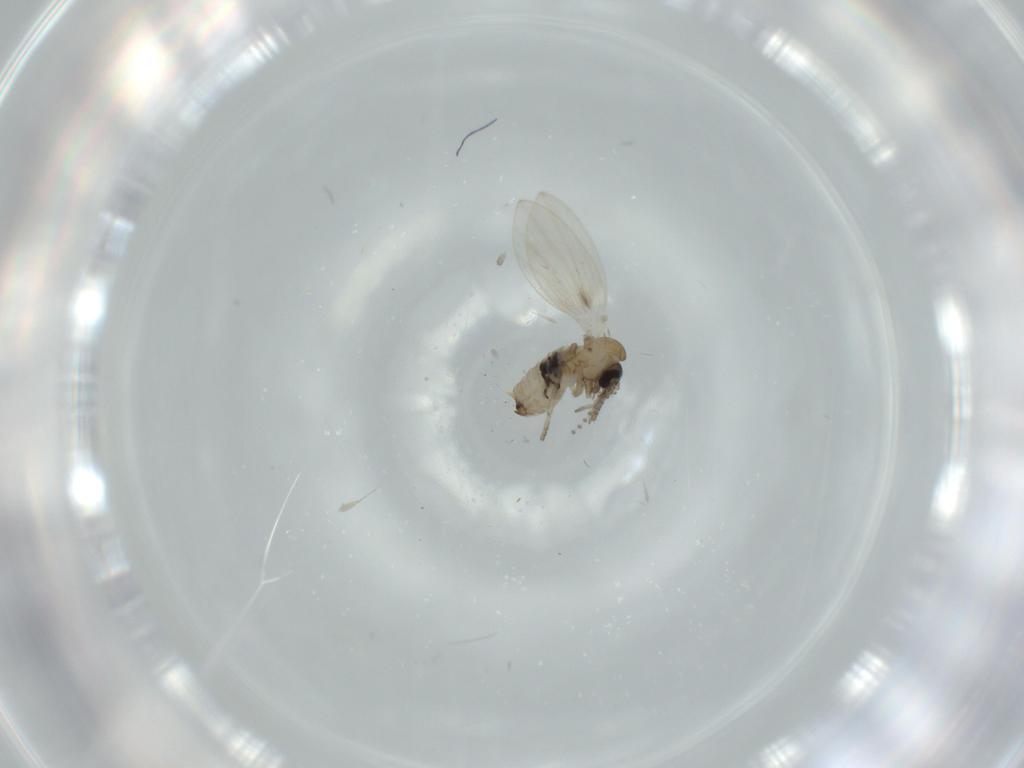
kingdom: Animalia
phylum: Arthropoda
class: Insecta
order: Diptera
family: Psychodidae
